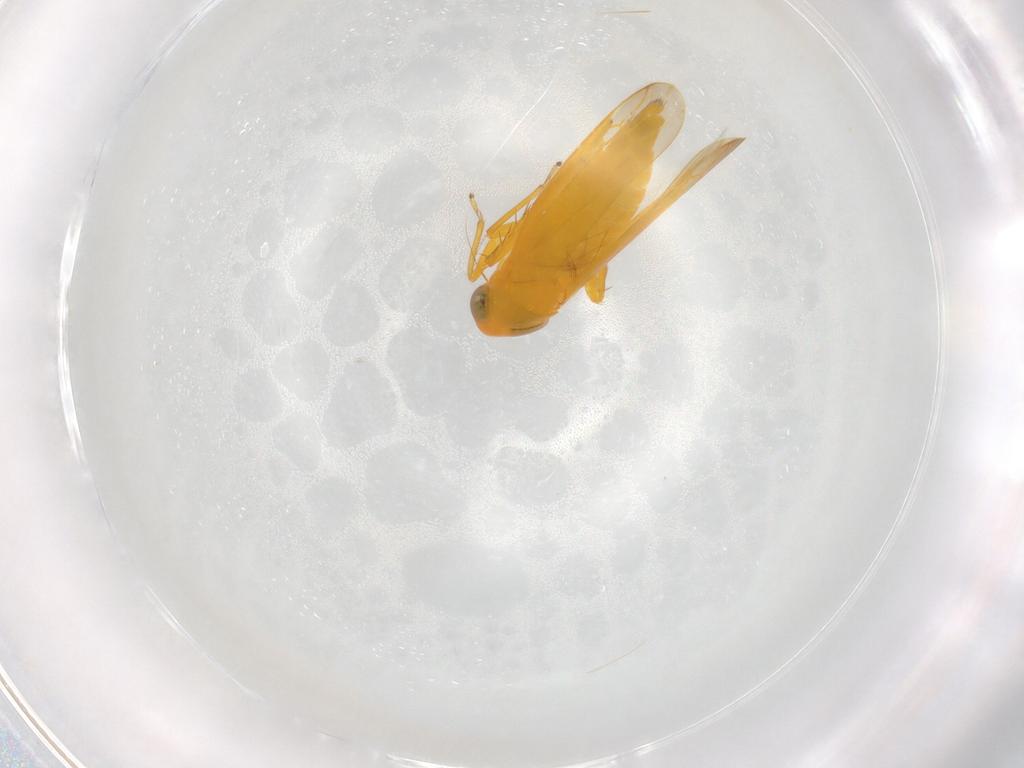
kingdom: Animalia
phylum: Arthropoda
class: Insecta
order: Hemiptera
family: Cicadellidae
